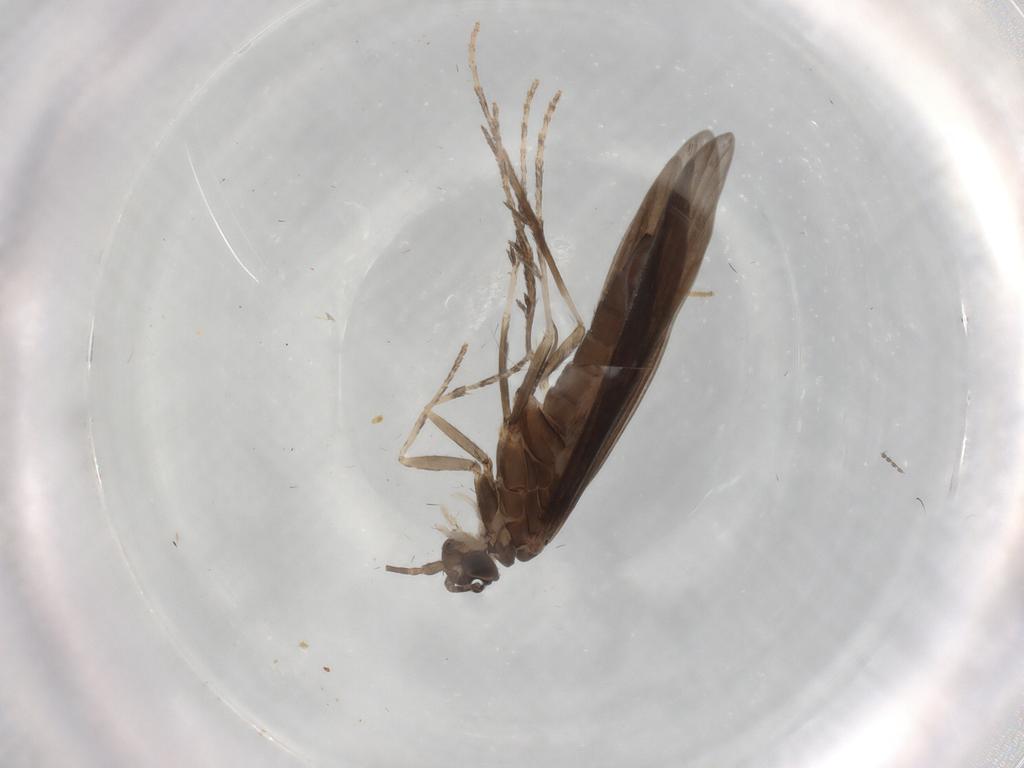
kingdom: Animalia
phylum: Arthropoda
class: Insecta
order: Trichoptera
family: Xiphocentronidae
